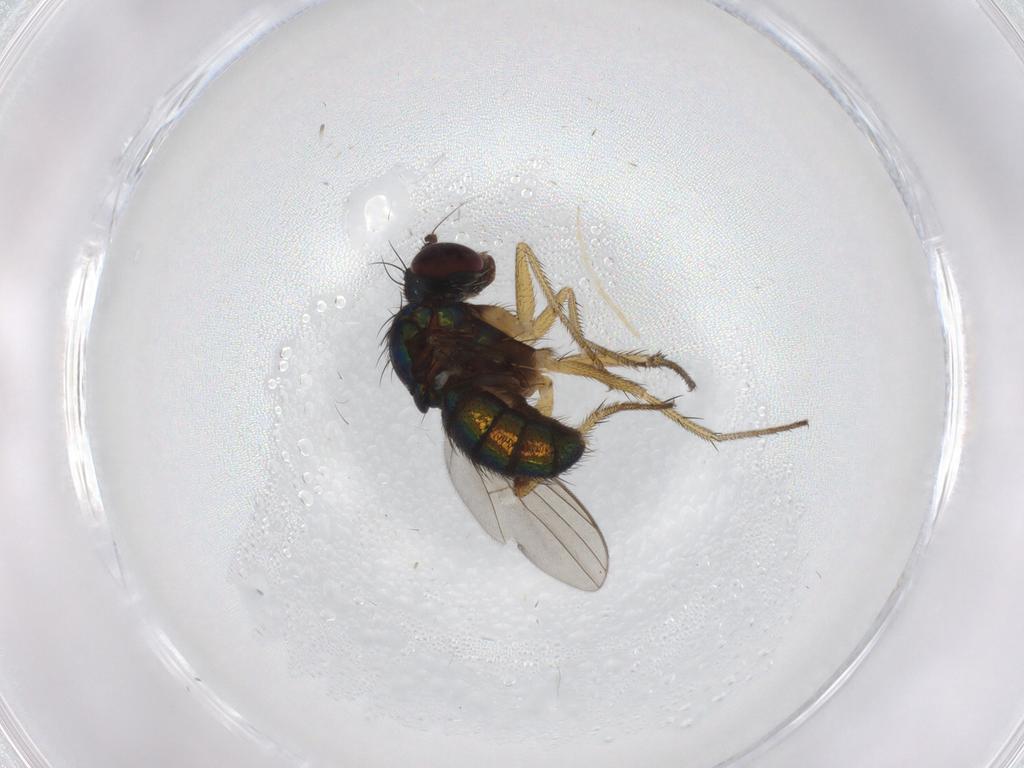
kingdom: Animalia
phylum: Arthropoda
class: Insecta
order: Diptera
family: Dolichopodidae
